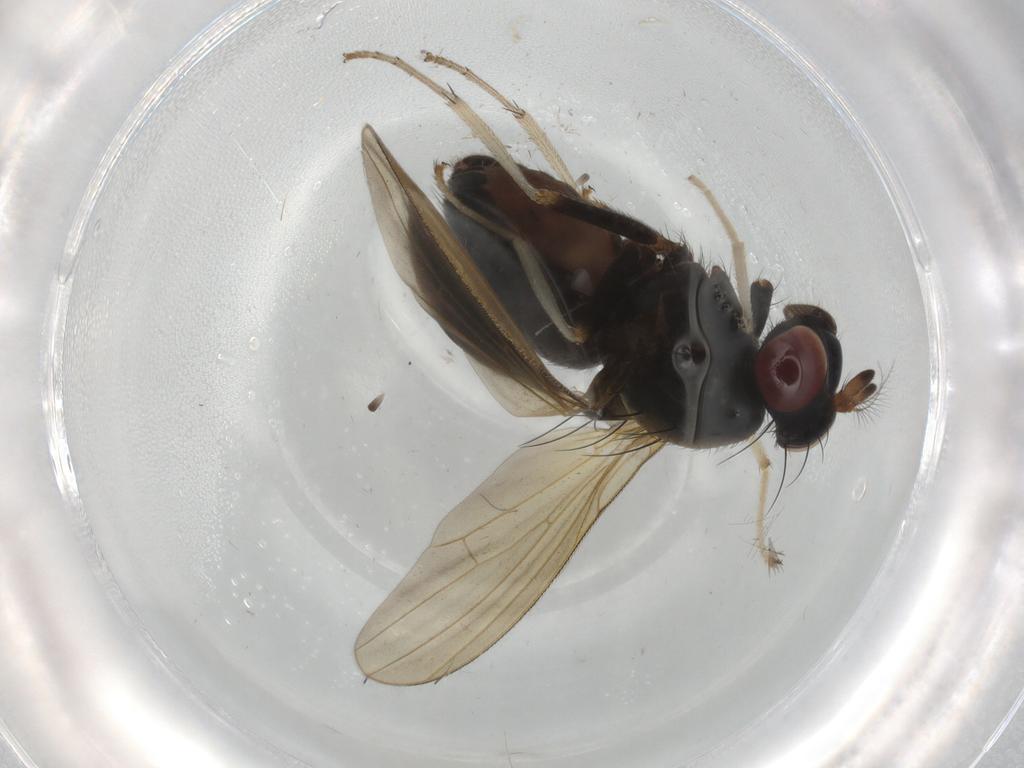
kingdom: Animalia
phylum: Arthropoda
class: Insecta
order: Diptera
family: Lauxaniidae
